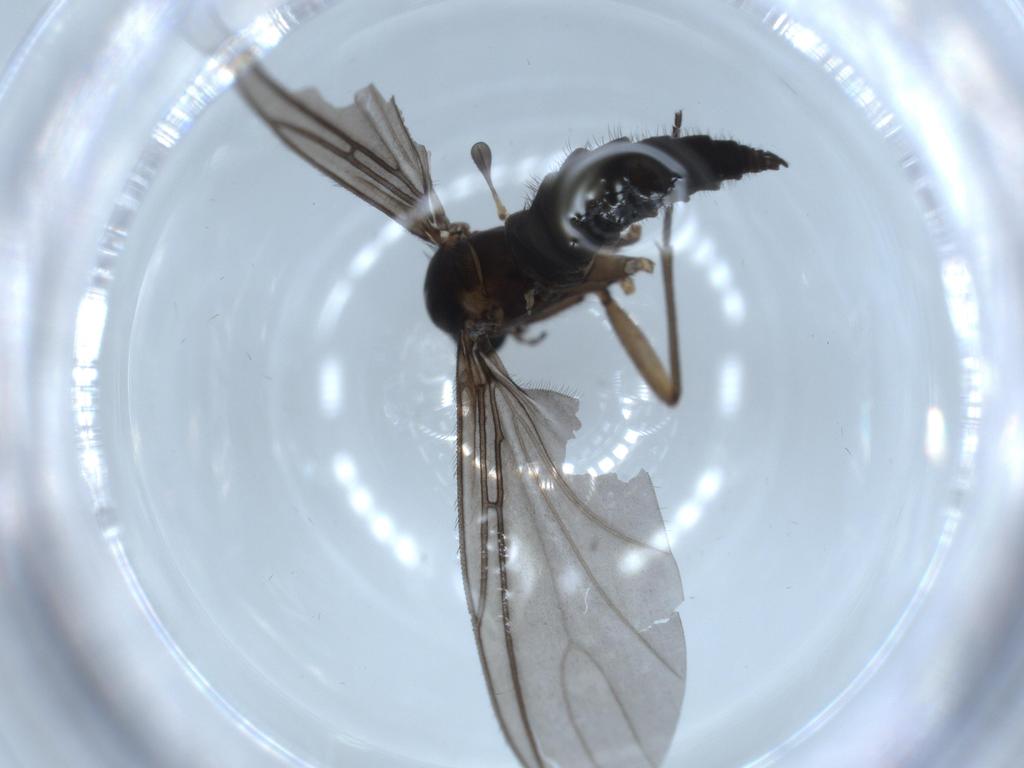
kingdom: Animalia
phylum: Arthropoda
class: Insecta
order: Diptera
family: Sciaridae
